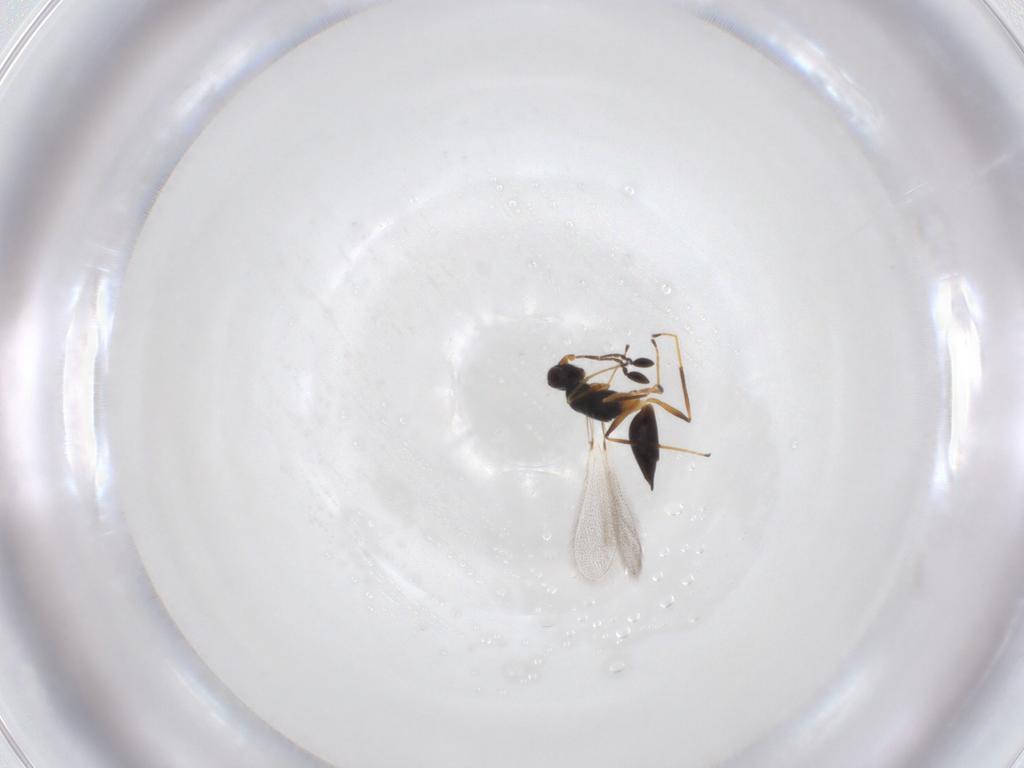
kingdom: Animalia
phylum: Arthropoda
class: Insecta
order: Hymenoptera
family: Mymaridae
